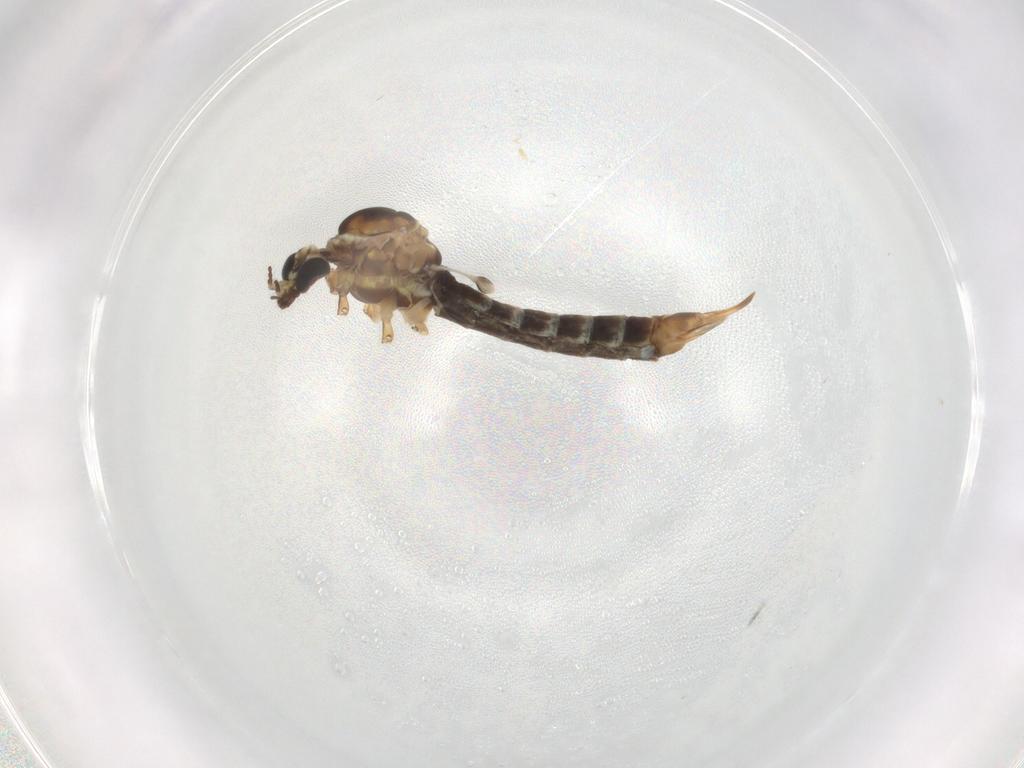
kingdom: Animalia
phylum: Arthropoda
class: Insecta
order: Diptera
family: Limoniidae
